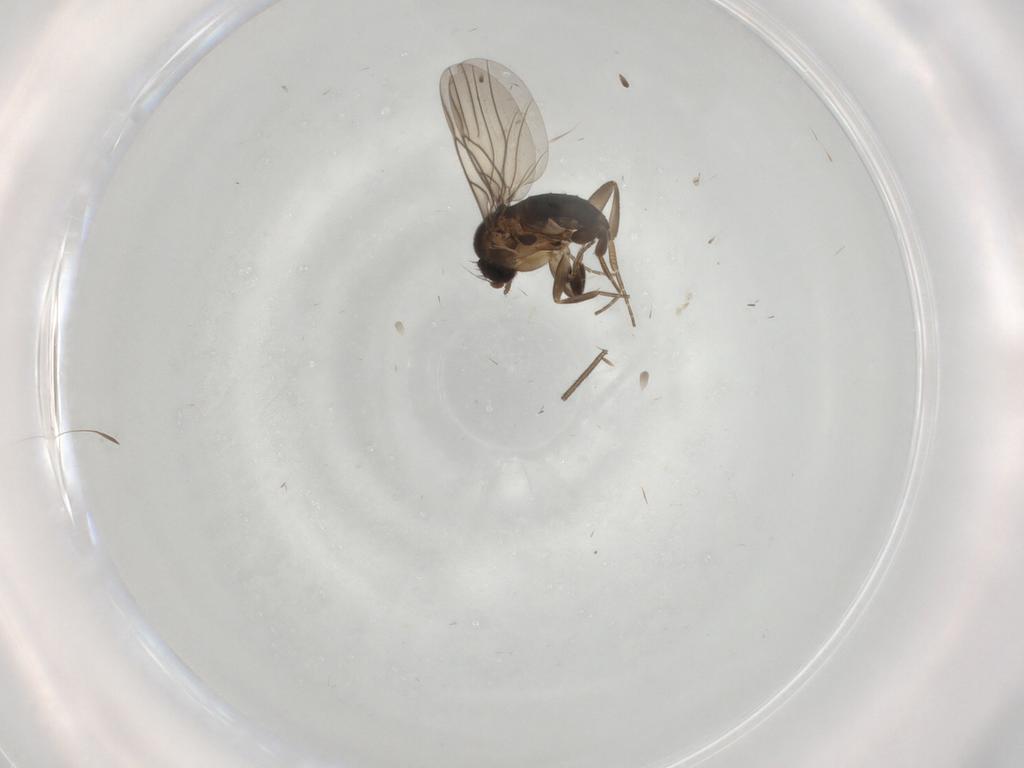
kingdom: Animalia
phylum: Arthropoda
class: Insecta
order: Diptera
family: Phoridae
